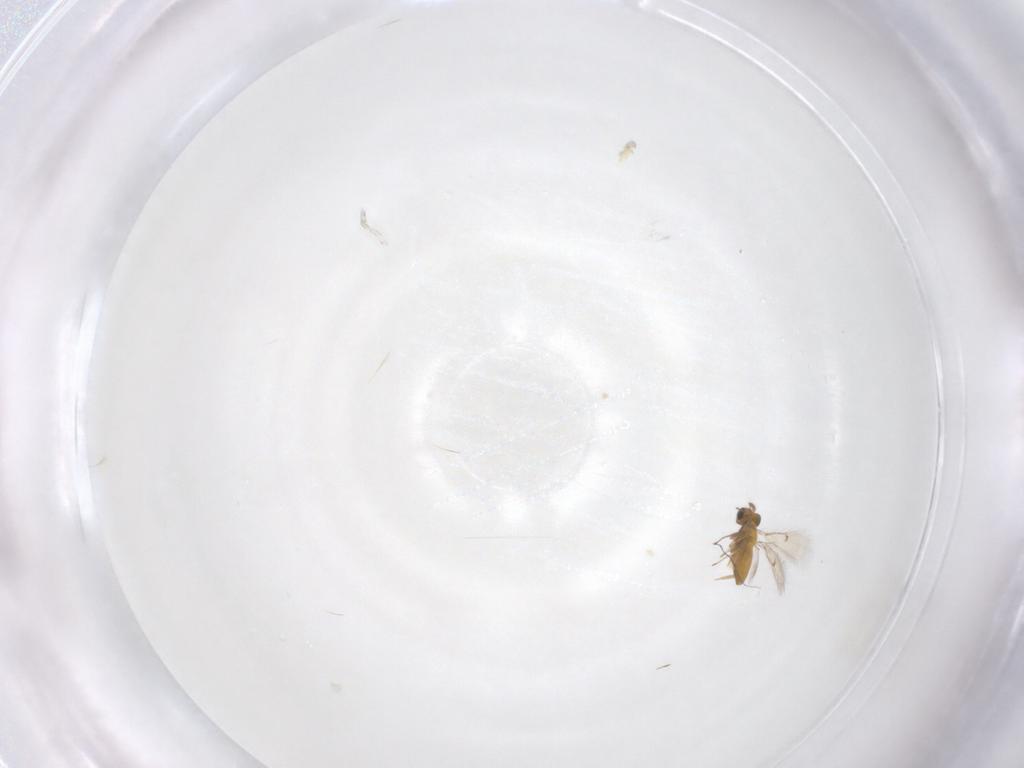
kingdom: Animalia
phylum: Arthropoda
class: Insecta
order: Hymenoptera
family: Trichogrammatidae
